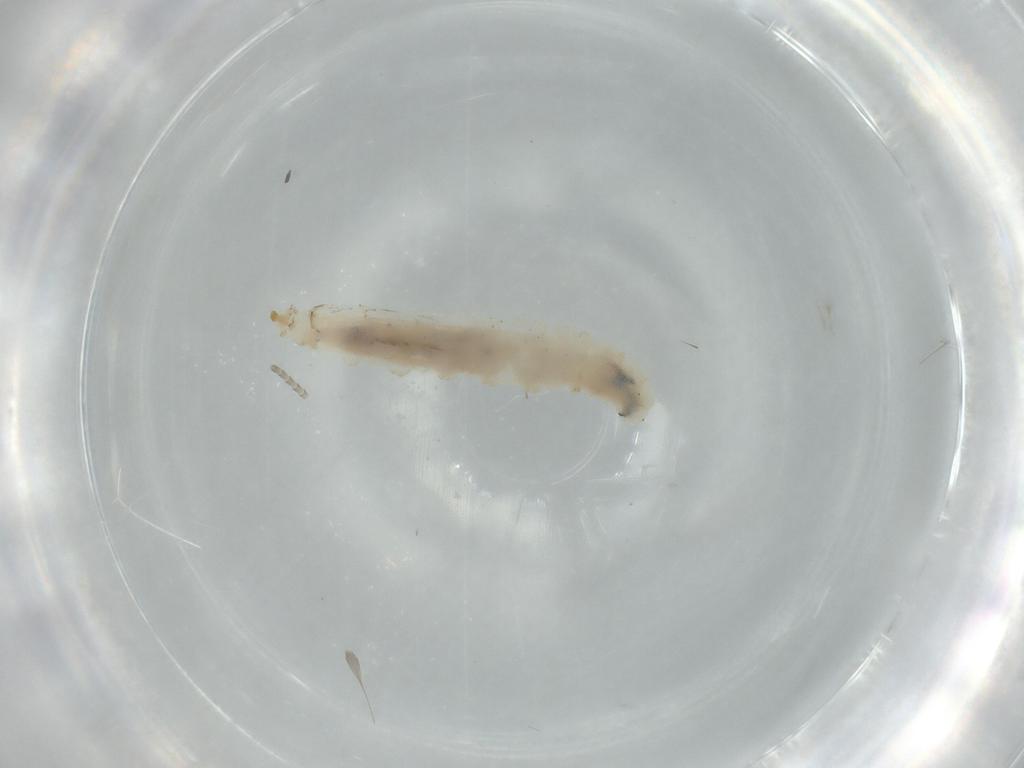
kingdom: Animalia
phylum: Arthropoda
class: Insecta
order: Diptera
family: Drosophilidae
